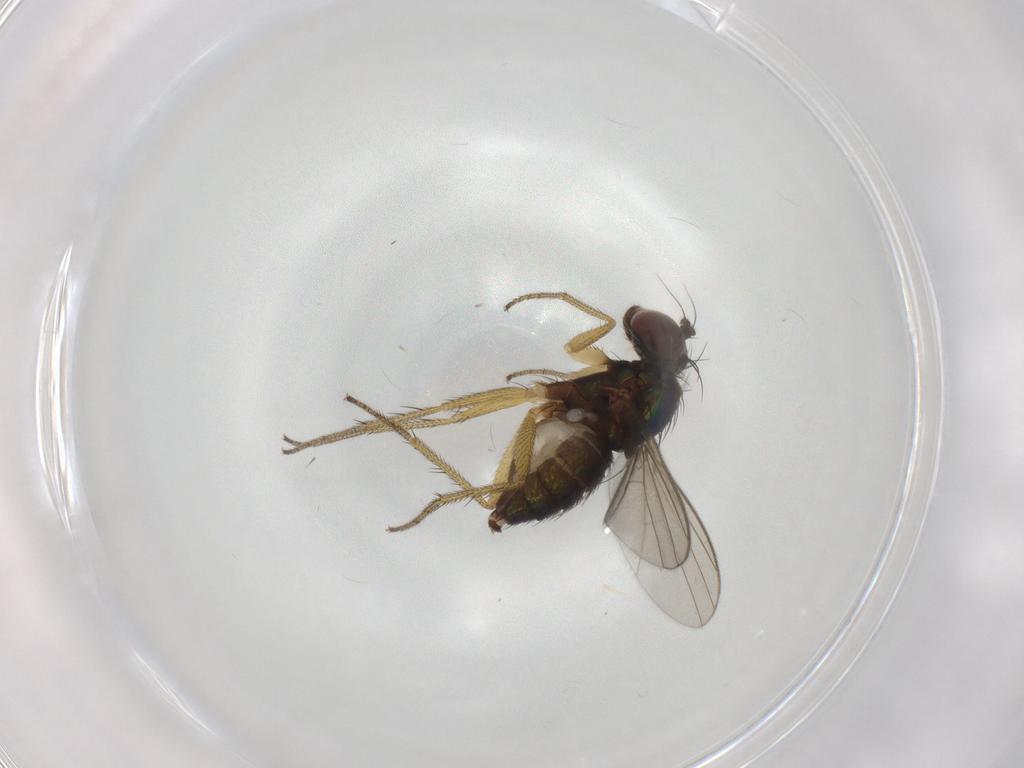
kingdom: Animalia
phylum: Arthropoda
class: Insecta
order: Diptera
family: Dolichopodidae
